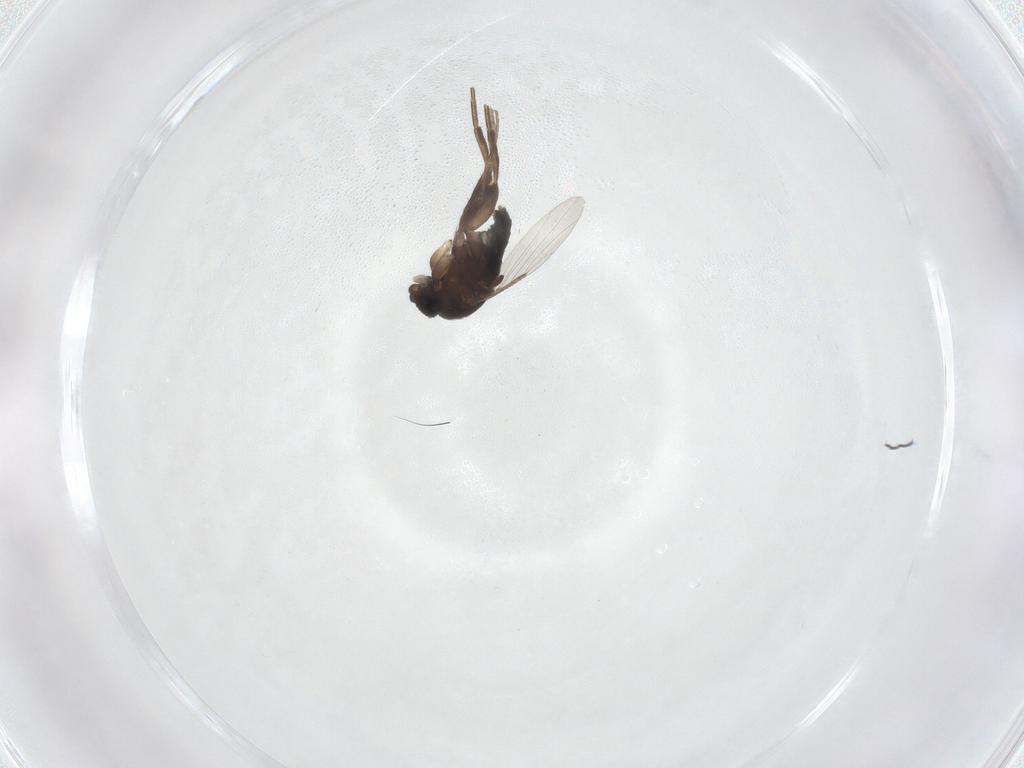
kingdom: Animalia
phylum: Arthropoda
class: Insecta
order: Diptera
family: Phoridae
